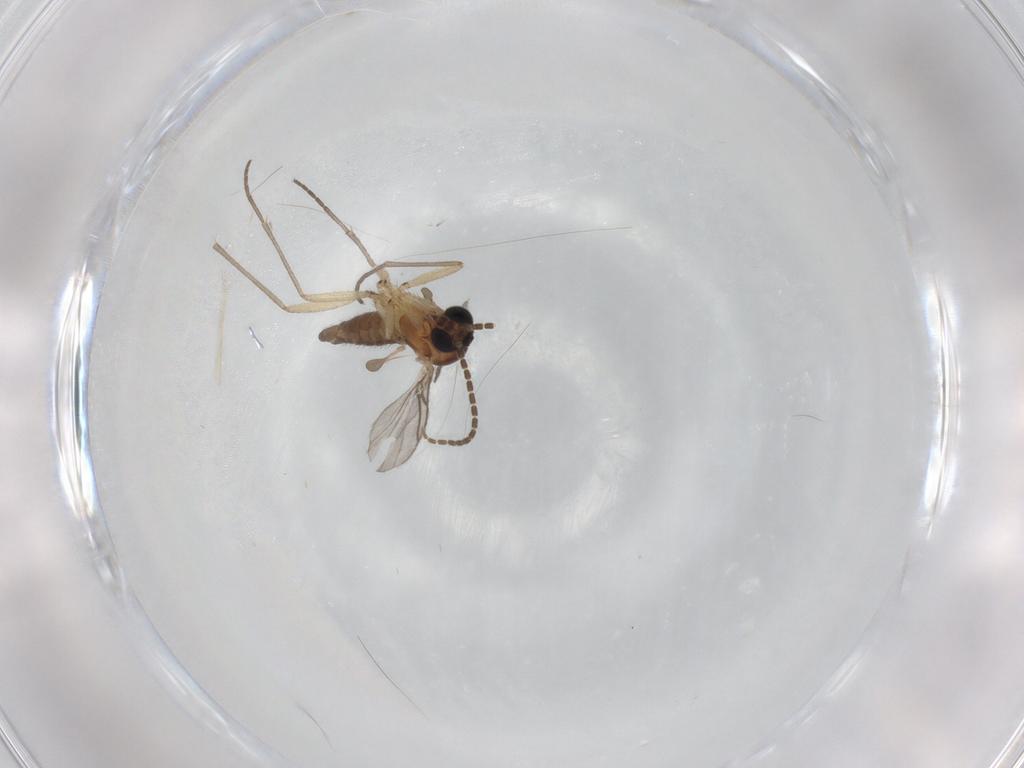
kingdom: Animalia
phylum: Arthropoda
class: Insecta
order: Diptera
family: Sciaridae
